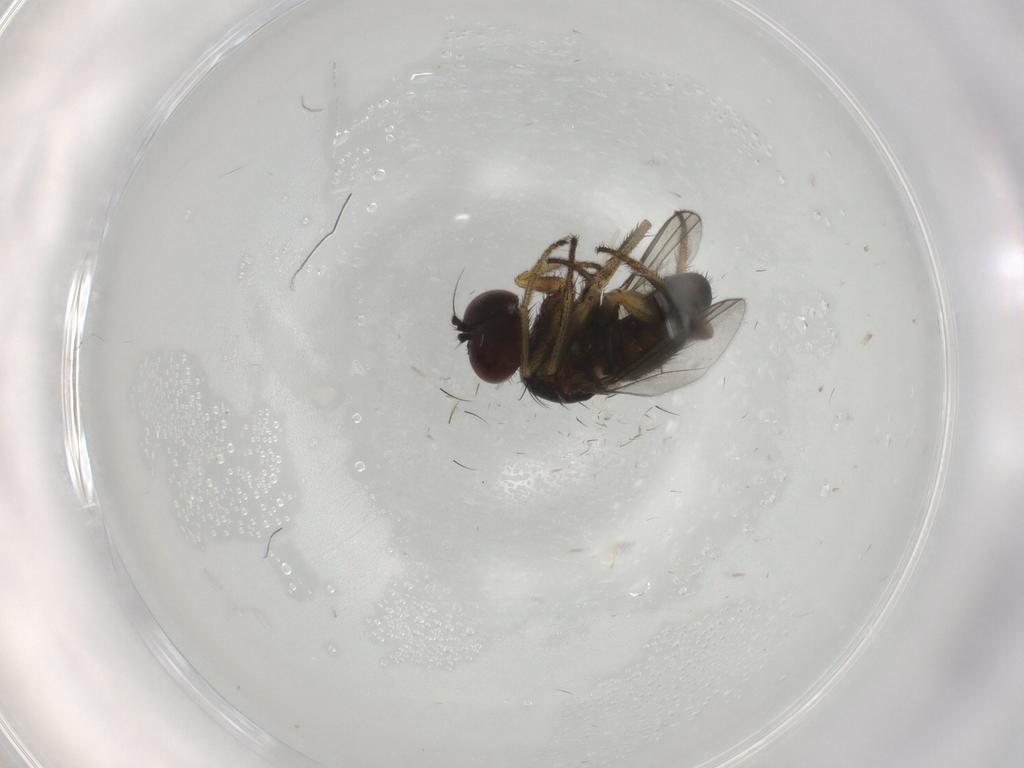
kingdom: Animalia
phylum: Arthropoda
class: Insecta
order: Diptera
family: Dolichopodidae
